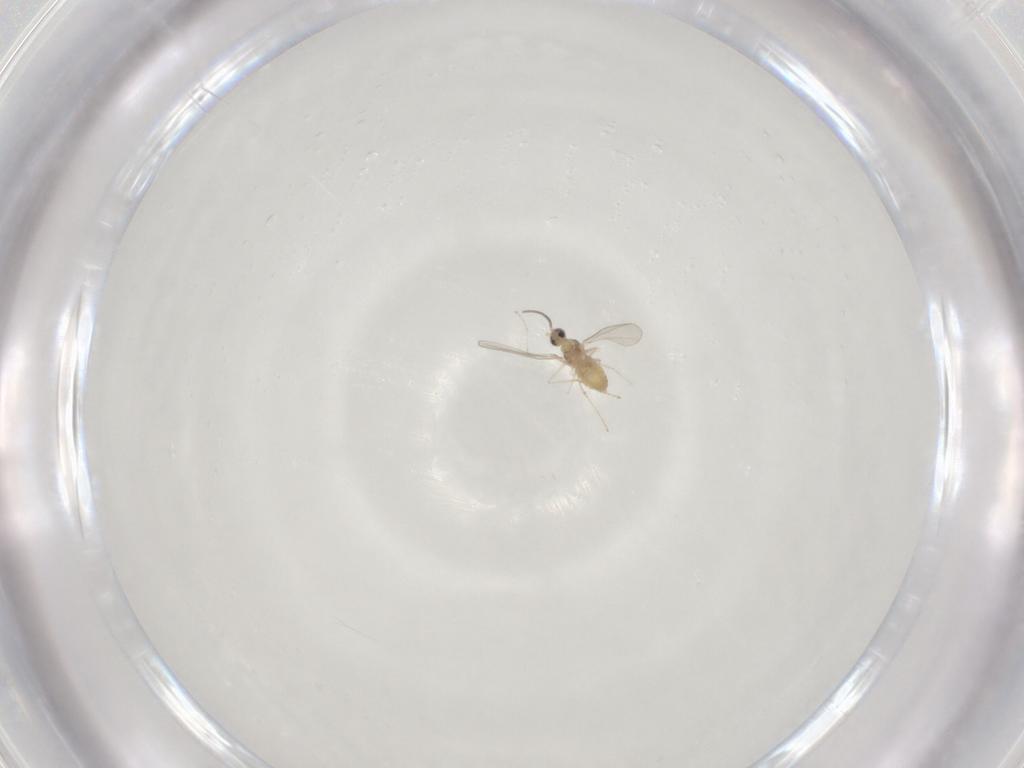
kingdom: Animalia
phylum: Arthropoda
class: Insecta
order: Diptera
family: Cecidomyiidae
